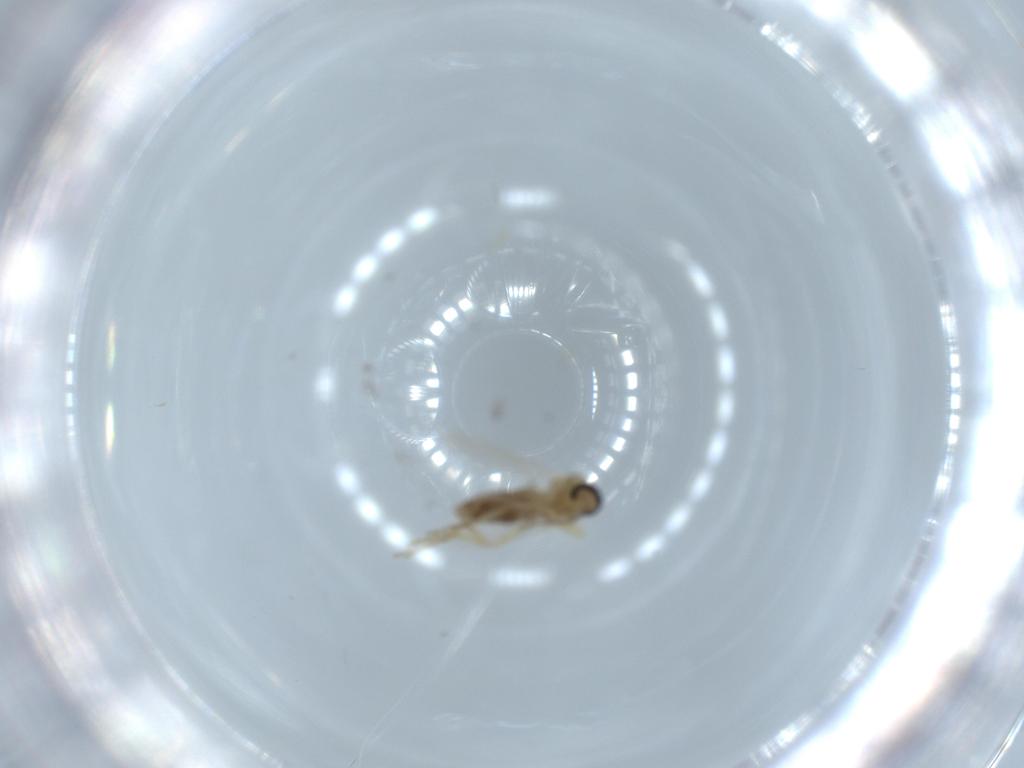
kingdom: Animalia
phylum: Arthropoda
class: Insecta
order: Diptera
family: Ceratopogonidae
